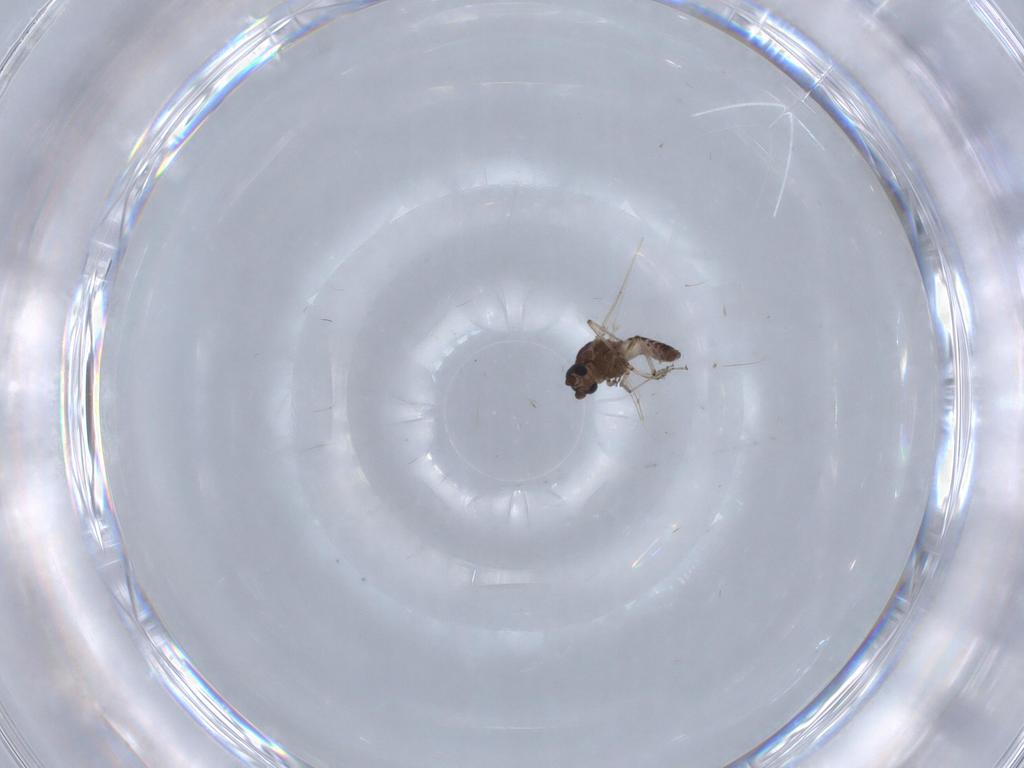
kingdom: Animalia
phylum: Arthropoda
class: Insecta
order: Diptera
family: Ceratopogonidae
